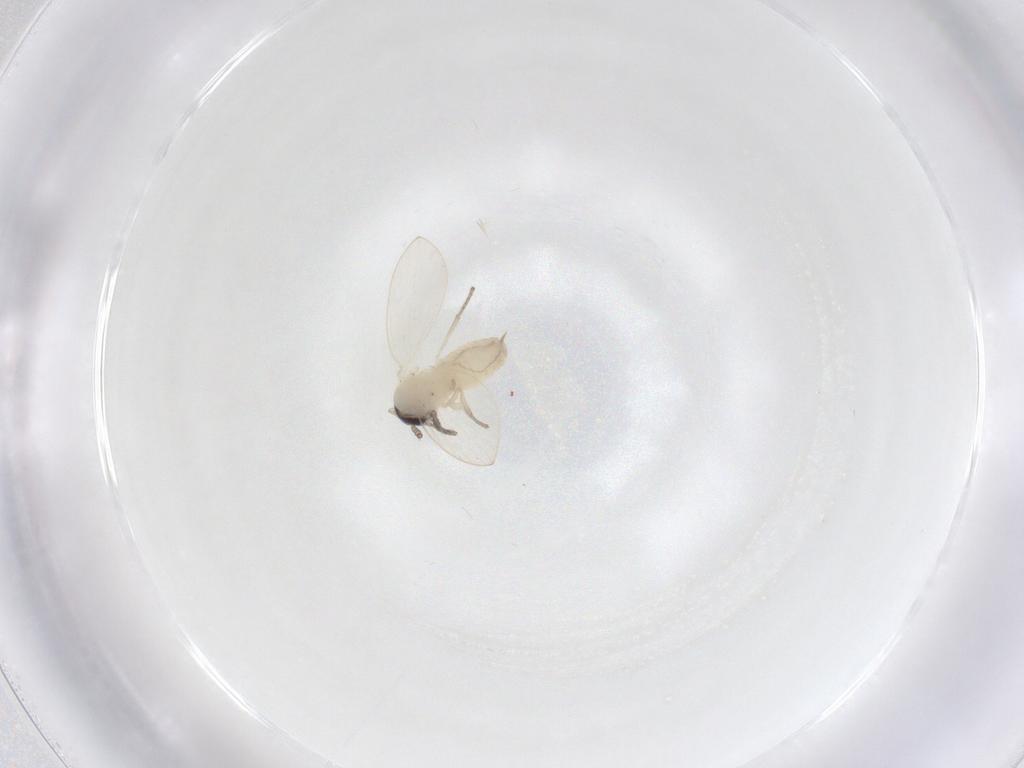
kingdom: Animalia
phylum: Arthropoda
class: Insecta
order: Diptera
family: Psychodidae
